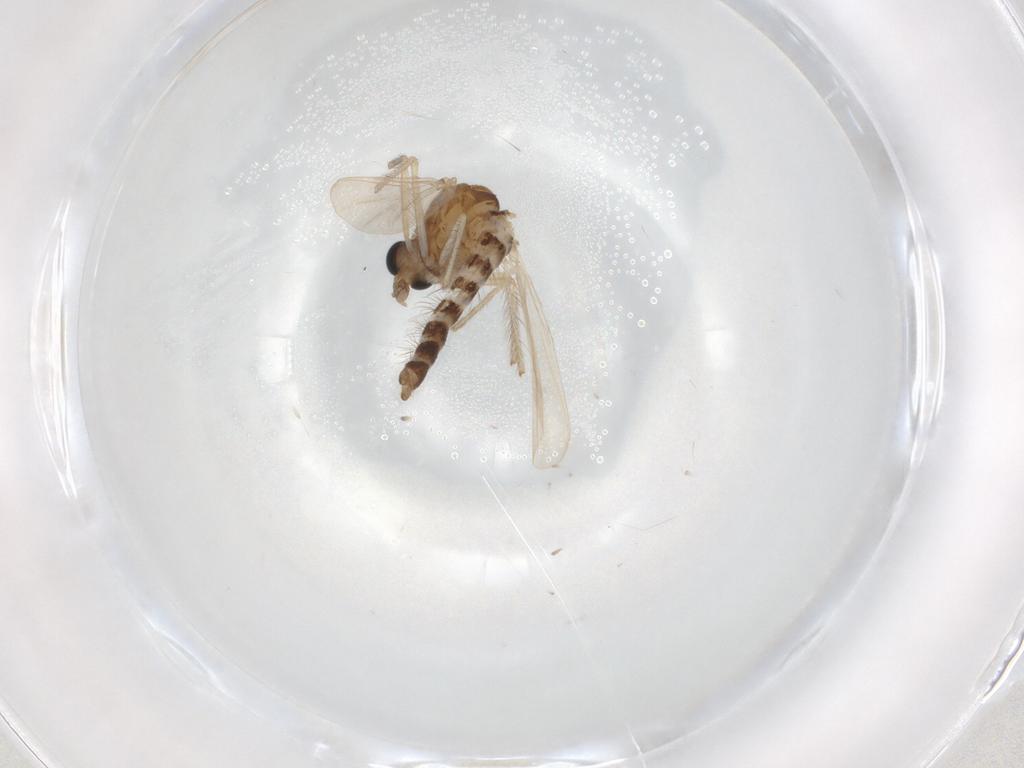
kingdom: Animalia
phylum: Arthropoda
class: Insecta
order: Diptera
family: Chironomidae
